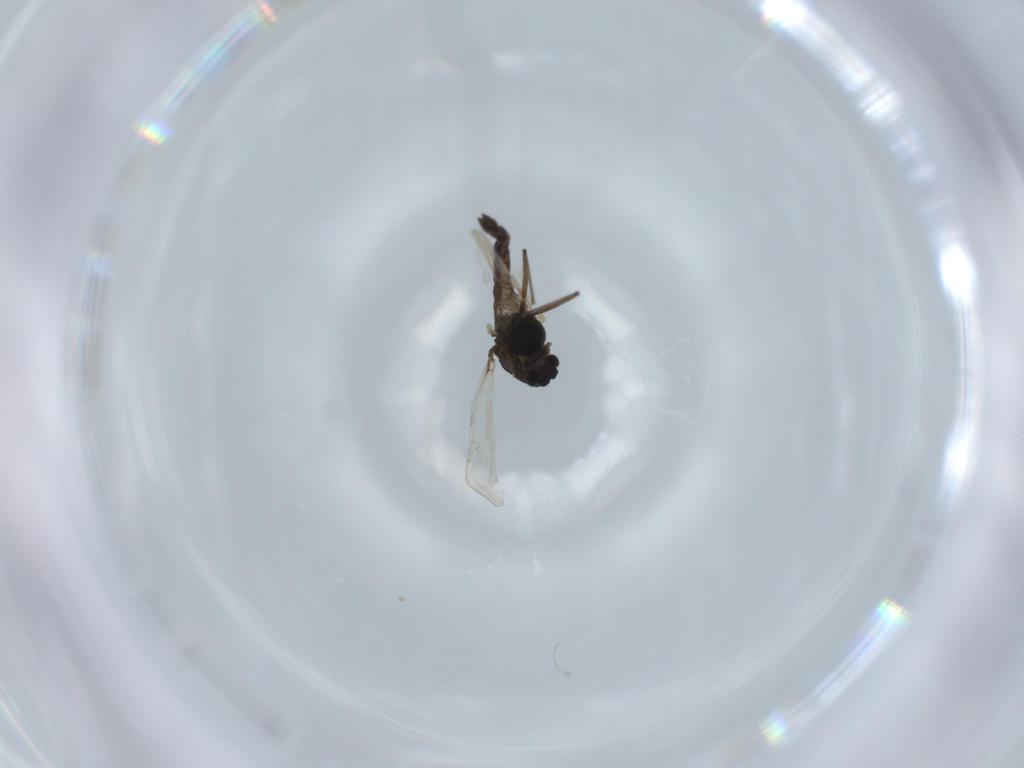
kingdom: Animalia
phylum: Arthropoda
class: Insecta
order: Diptera
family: Chironomidae
